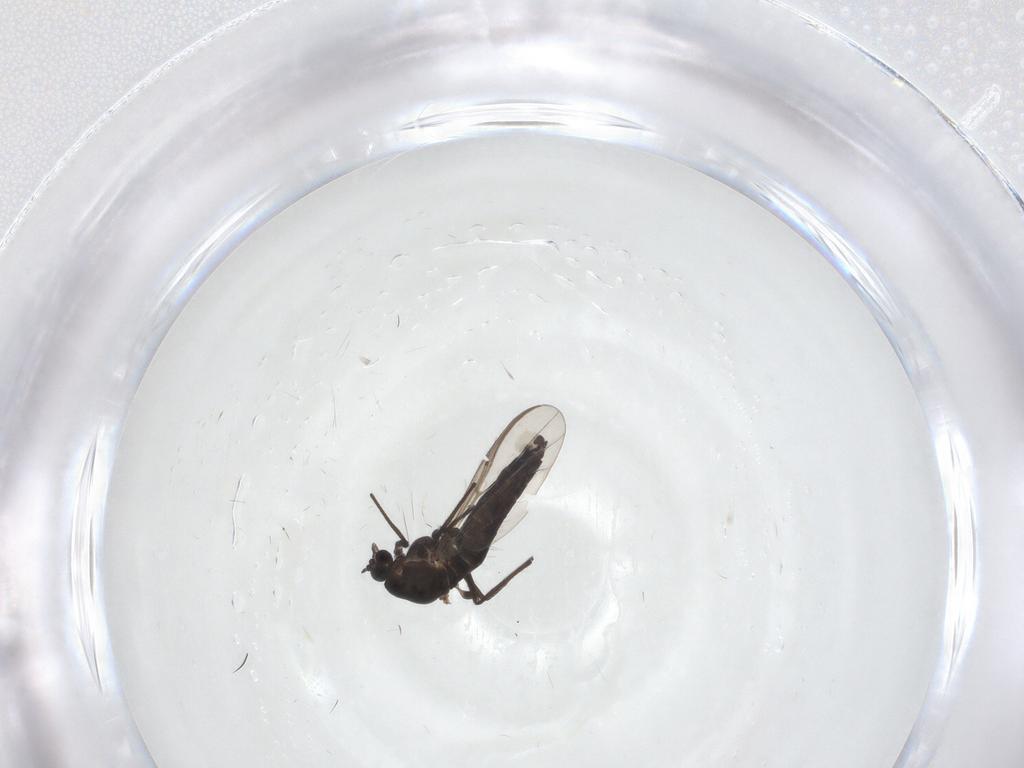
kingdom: Animalia
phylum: Arthropoda
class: Insecta
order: Diptera
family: Chironomidae
